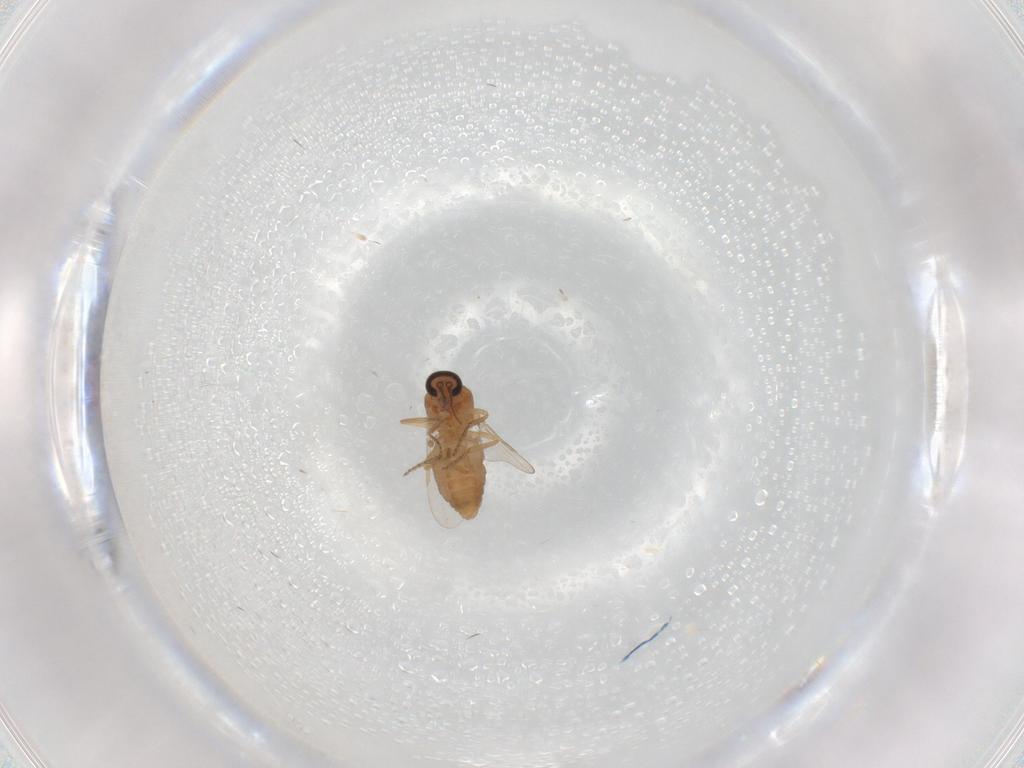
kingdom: Animalia
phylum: Arthropoda
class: Insecta
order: Diptera
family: Ceratopogonidae
